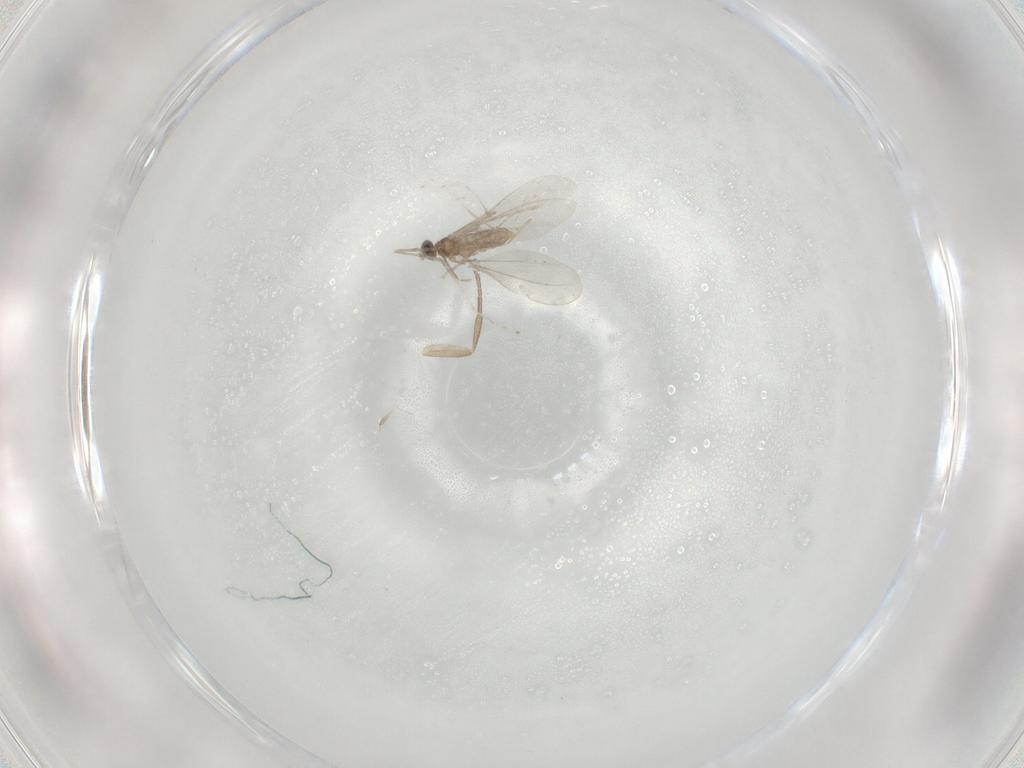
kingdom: Animalia
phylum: Arthropoda
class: Insecta
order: Diptera
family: Cecidomyiidae
